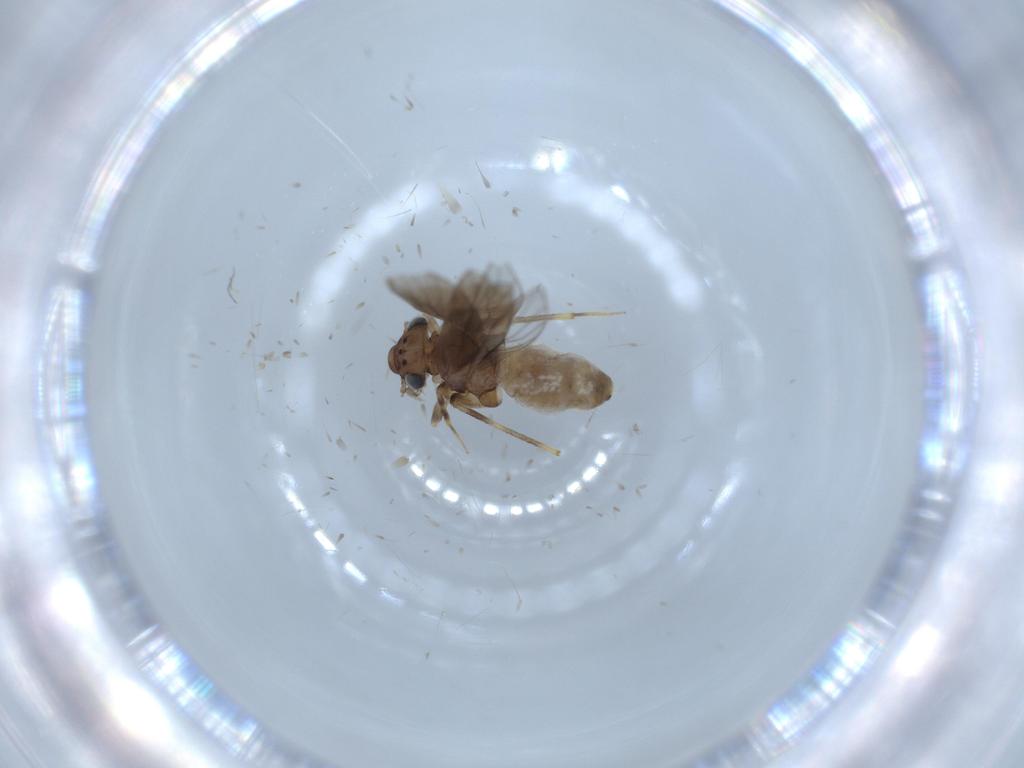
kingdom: Animalia
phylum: Arthropoda
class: Insecta
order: Psocodea
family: Lepidopsocidae
